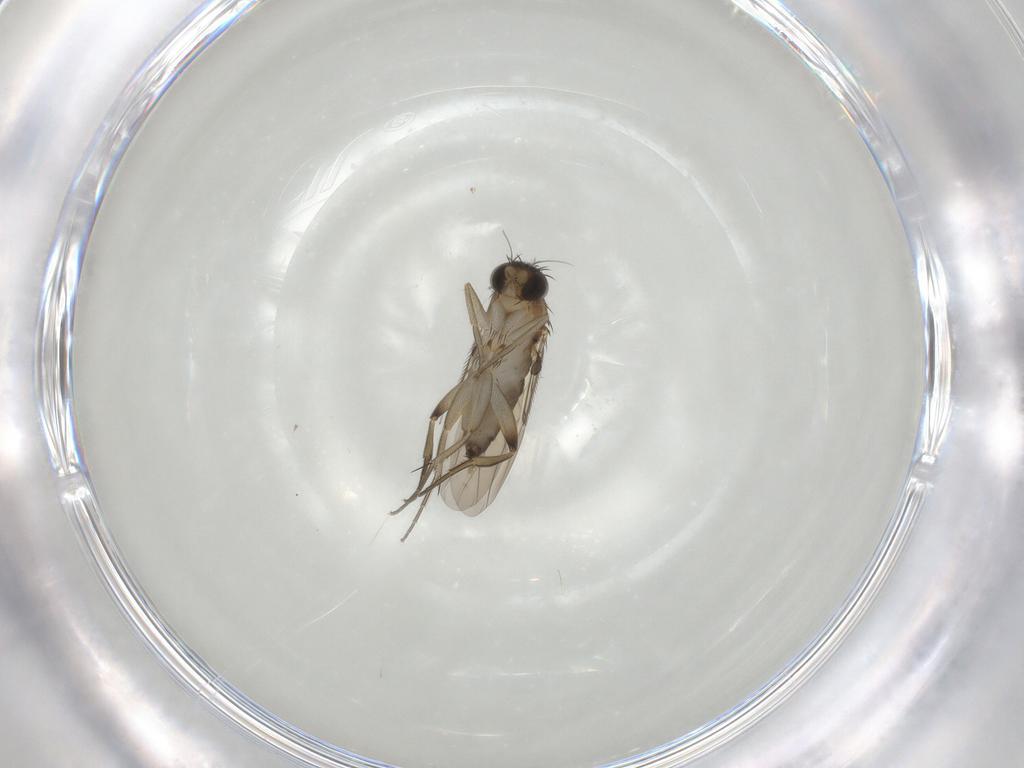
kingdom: Animalia
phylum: Arthropoda
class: Insecta
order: Diptera
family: Phoridae
